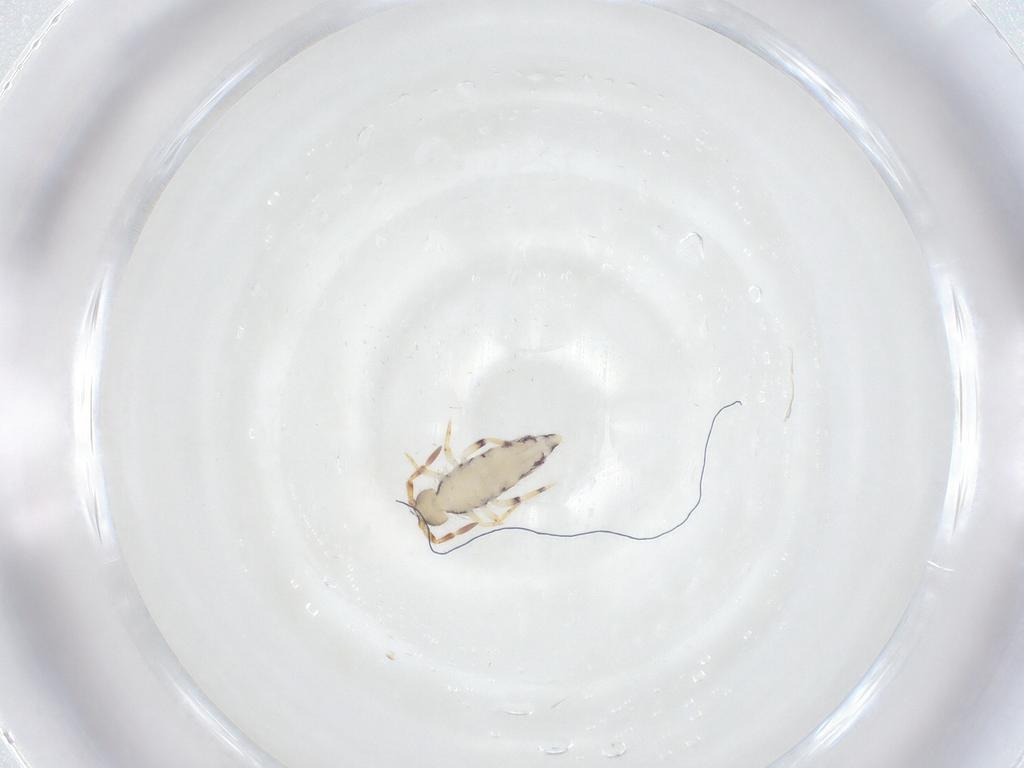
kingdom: Animalia
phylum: Arthropoda
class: Collembola
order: Entomobryomorpha
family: Isotomidae
